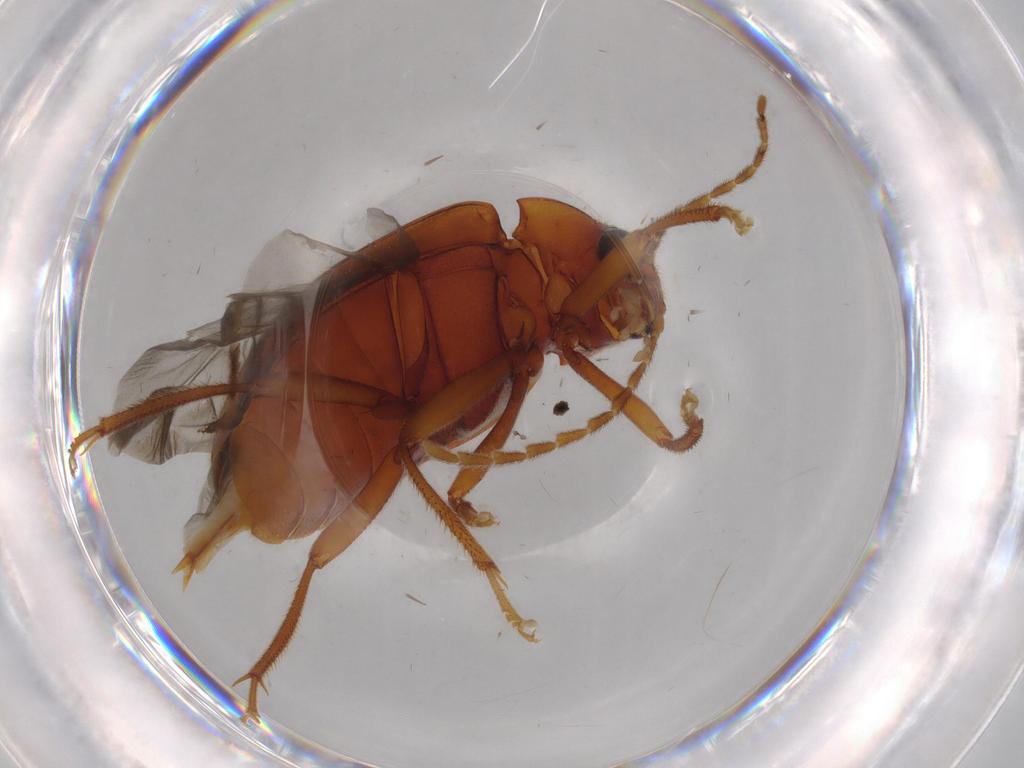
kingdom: Animalia
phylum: Arthropoda
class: Insecta
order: Coleoptera
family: Ptilodactylidae
